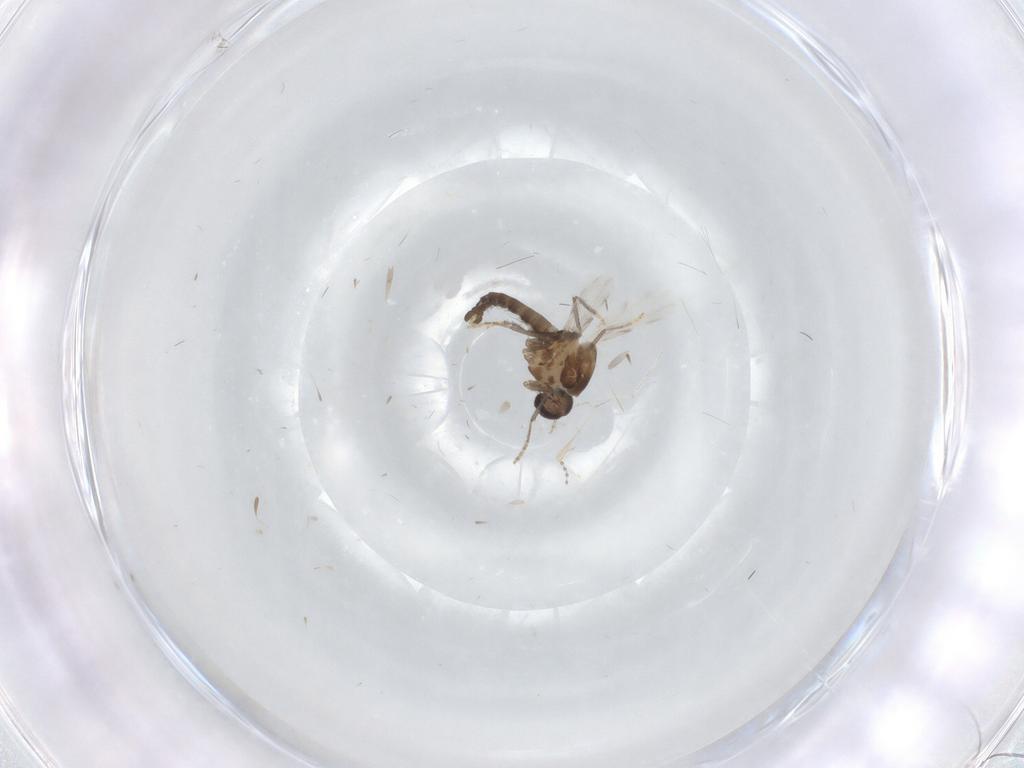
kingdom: Animalia
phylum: Arthropoda
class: Insecta
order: Diptera
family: Ceratopogonidae
